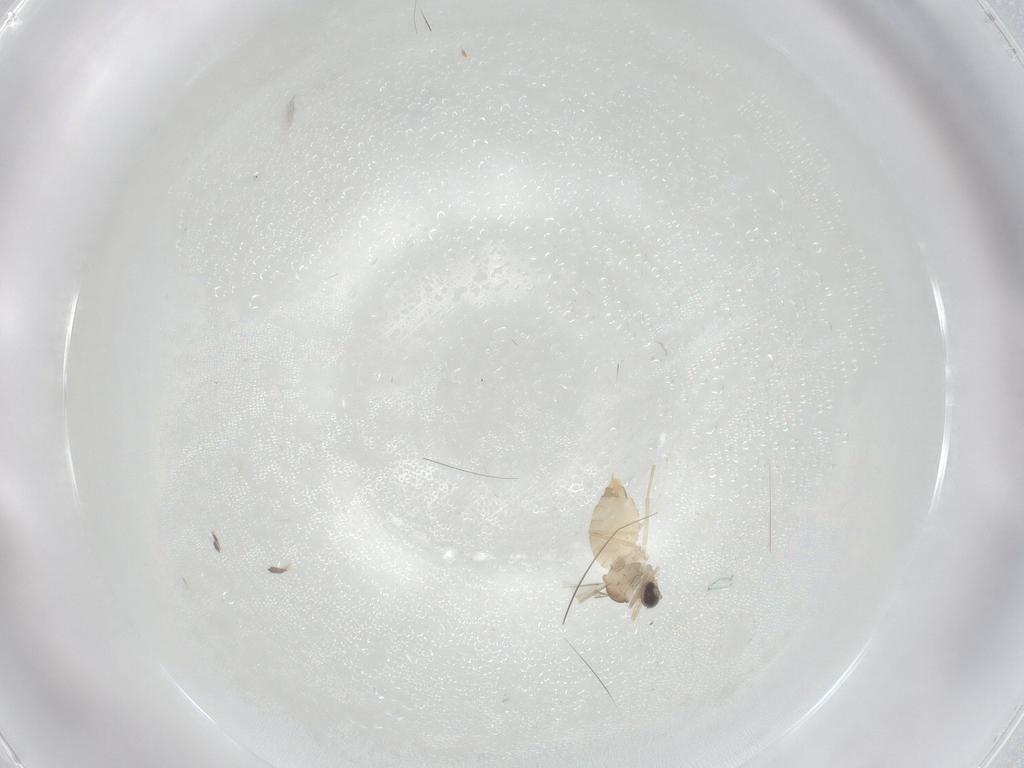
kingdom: Animalia
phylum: Arthropoda
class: Insecta
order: Diptera
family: Cecidomyiidae
